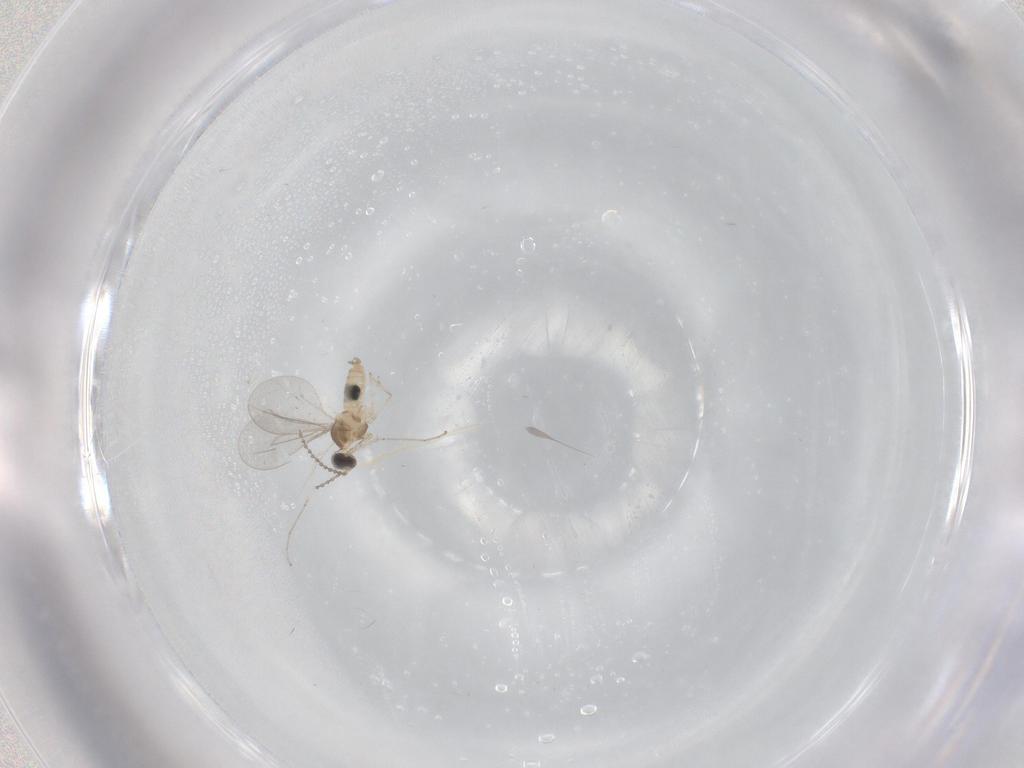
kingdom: Animalia
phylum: Arthropoda
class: Insecta
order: Diptera
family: Cecidomyiidae
